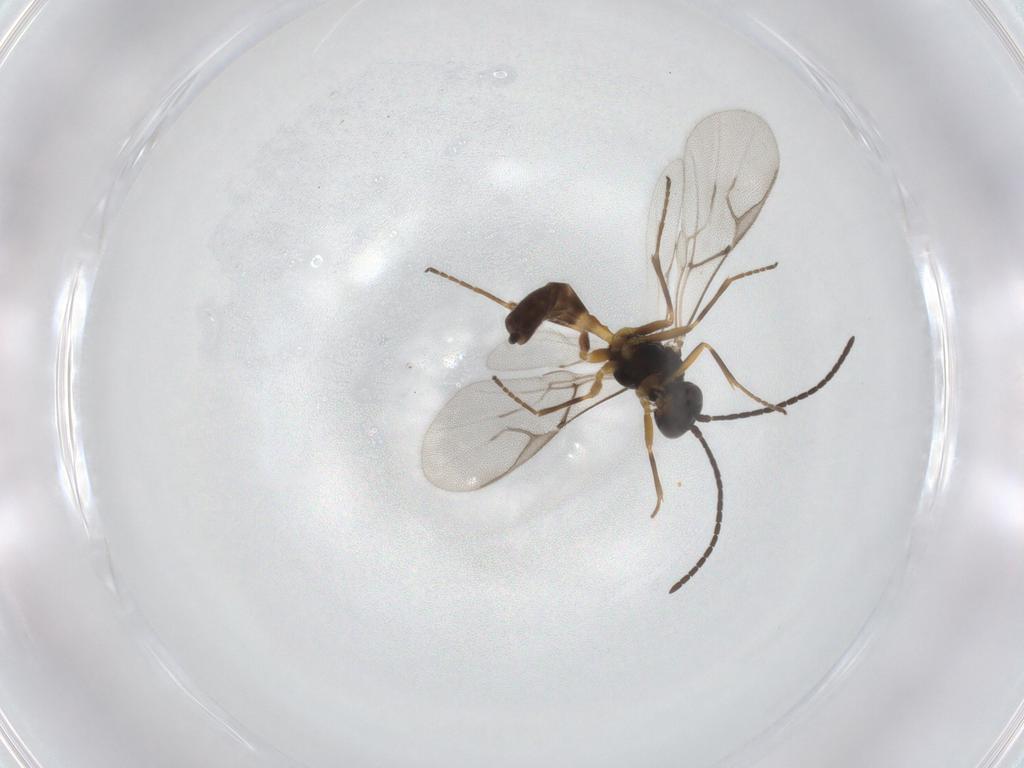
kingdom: Animalia
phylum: Arthropoda
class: Insecta
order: Hymenoptera
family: Braconidae
